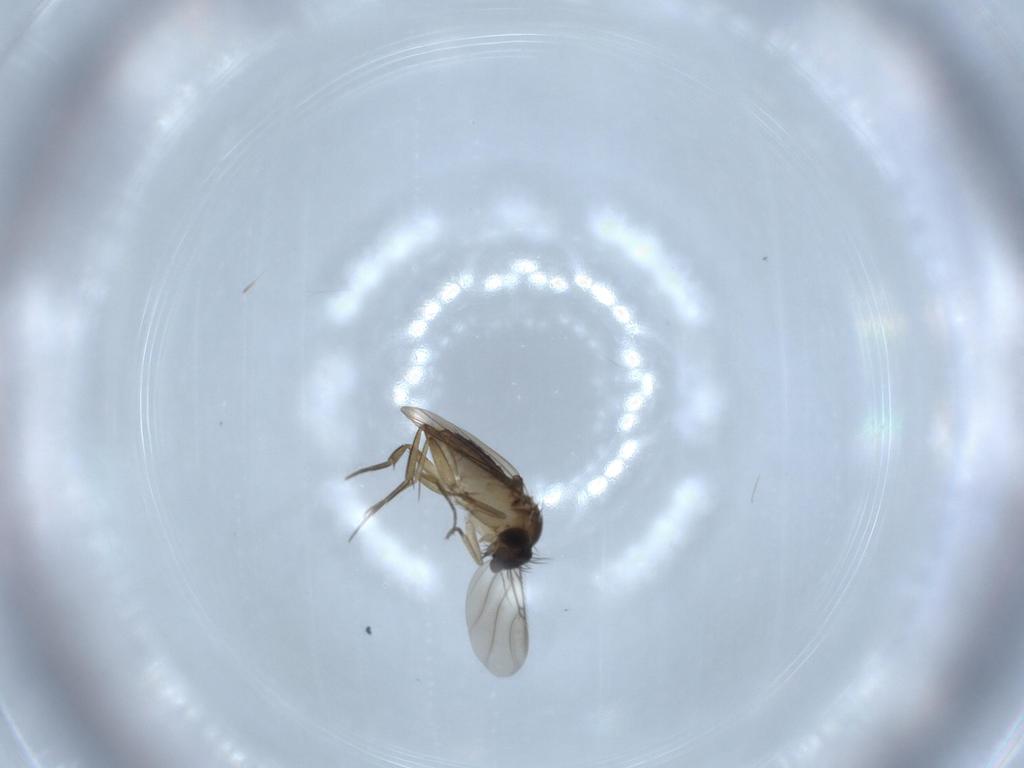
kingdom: Animalia
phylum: Arthropoda
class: Insecta
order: Diptera
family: Phoridae
